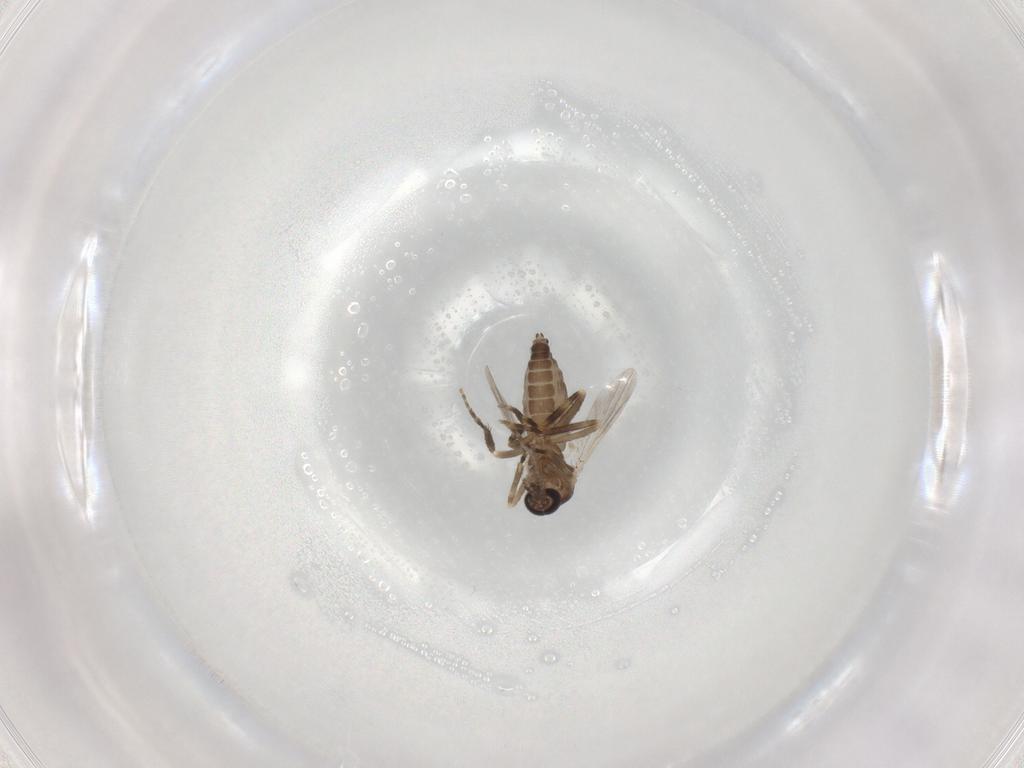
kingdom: Animalia
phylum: Arthropoda
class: Insecta
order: Diptera
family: Ceratopogonidae
